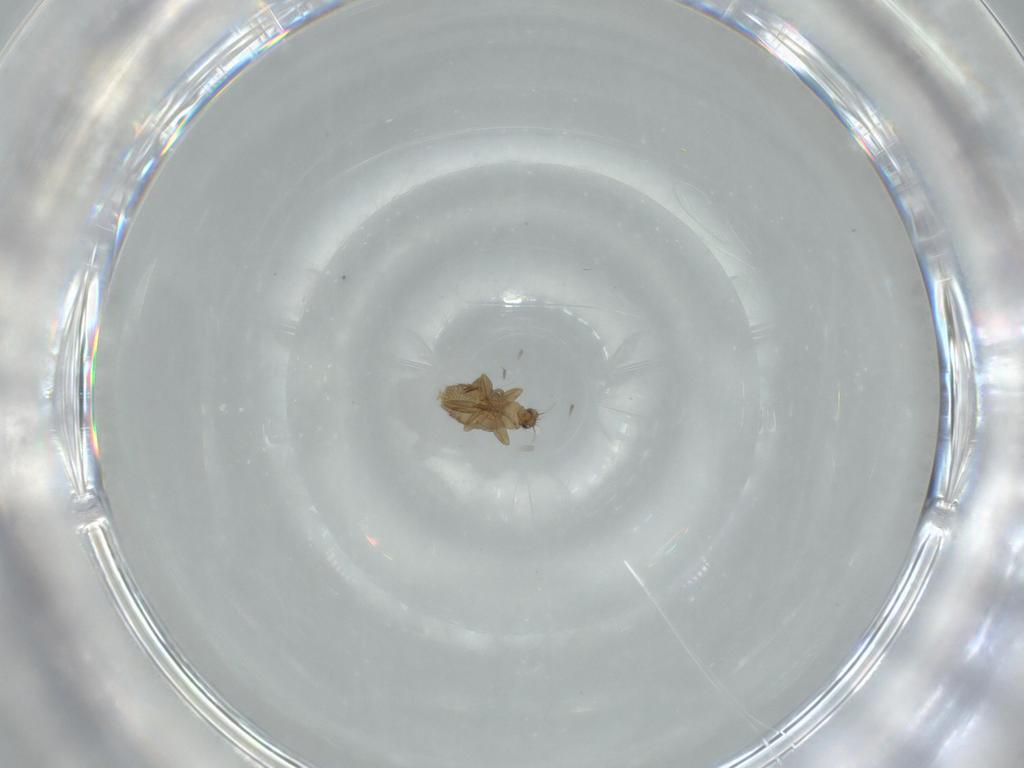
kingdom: Animalia
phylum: Arthropoda
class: Insecta
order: Diptera
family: Phoridae
